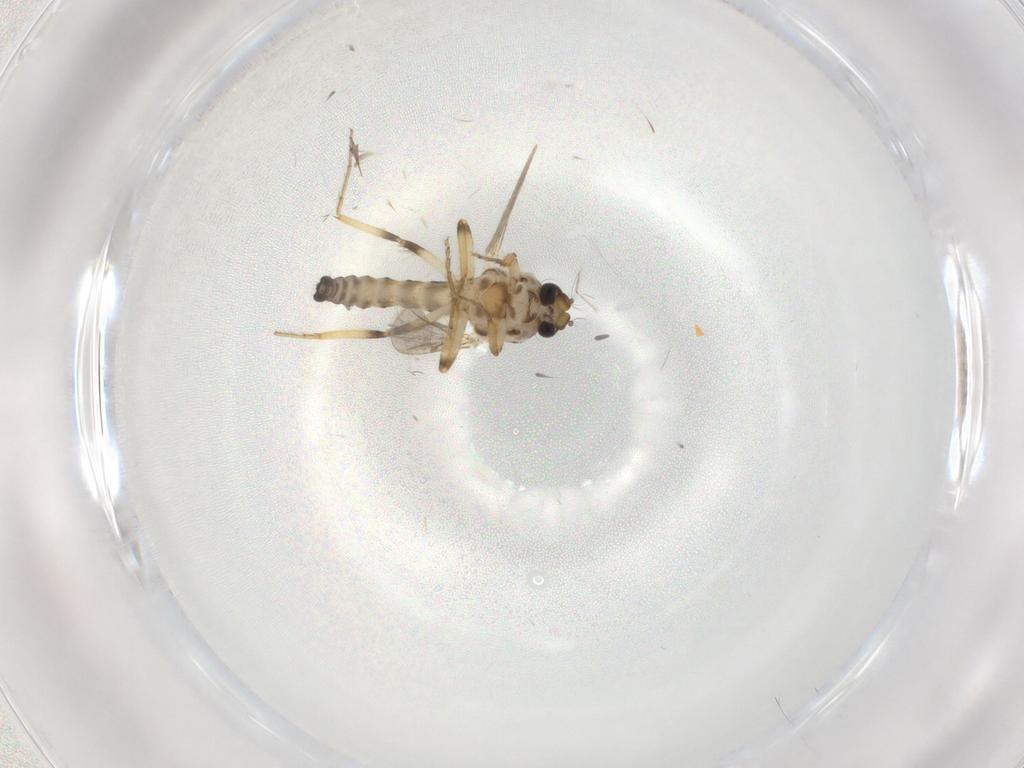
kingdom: Animalia
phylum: Arthropoda
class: Insecta
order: Diptera
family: Ceratopogonidae
